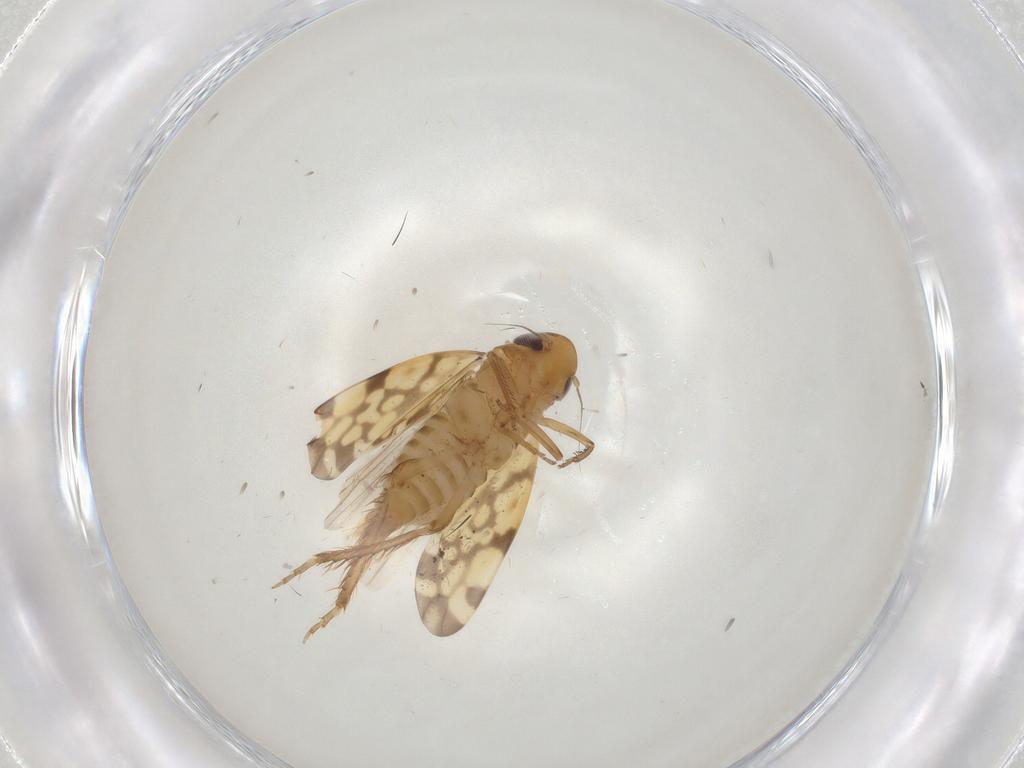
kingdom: Animalia
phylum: Arthropoda
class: Insecta
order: Hemiptera
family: Cicadellidae
